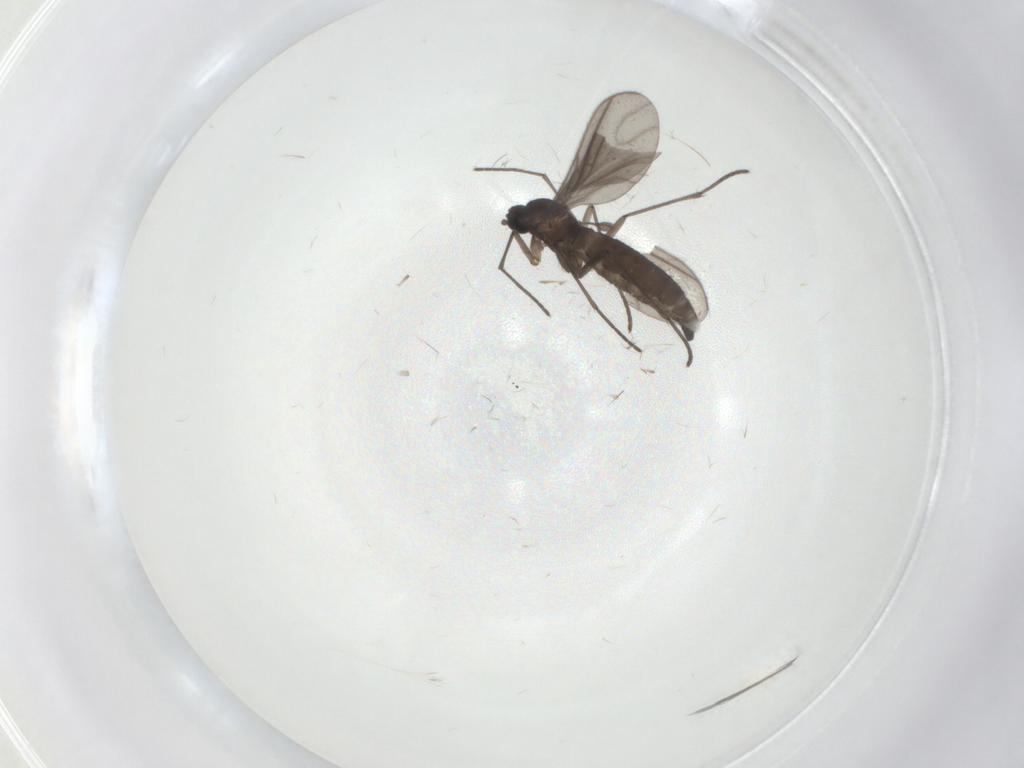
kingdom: Animalia
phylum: Arthropoda
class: Insecta
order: Diptera
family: Sciaridae
